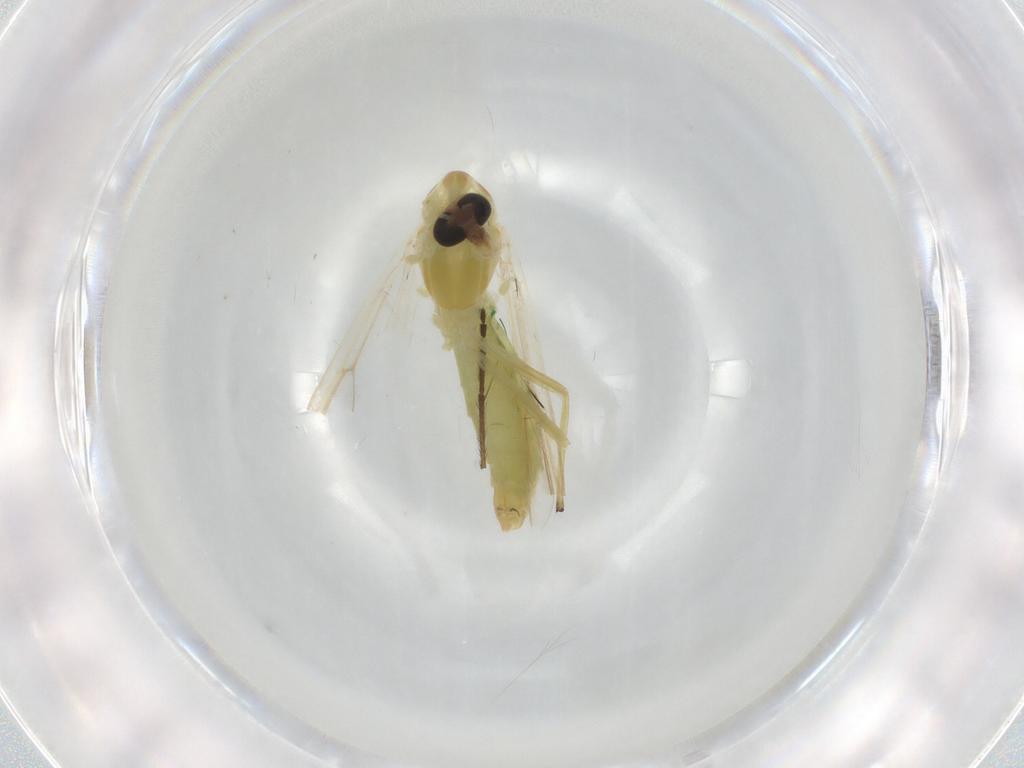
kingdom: Animalia
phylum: Arthropoda
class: Insecta
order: Diptera
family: Chironomidae
